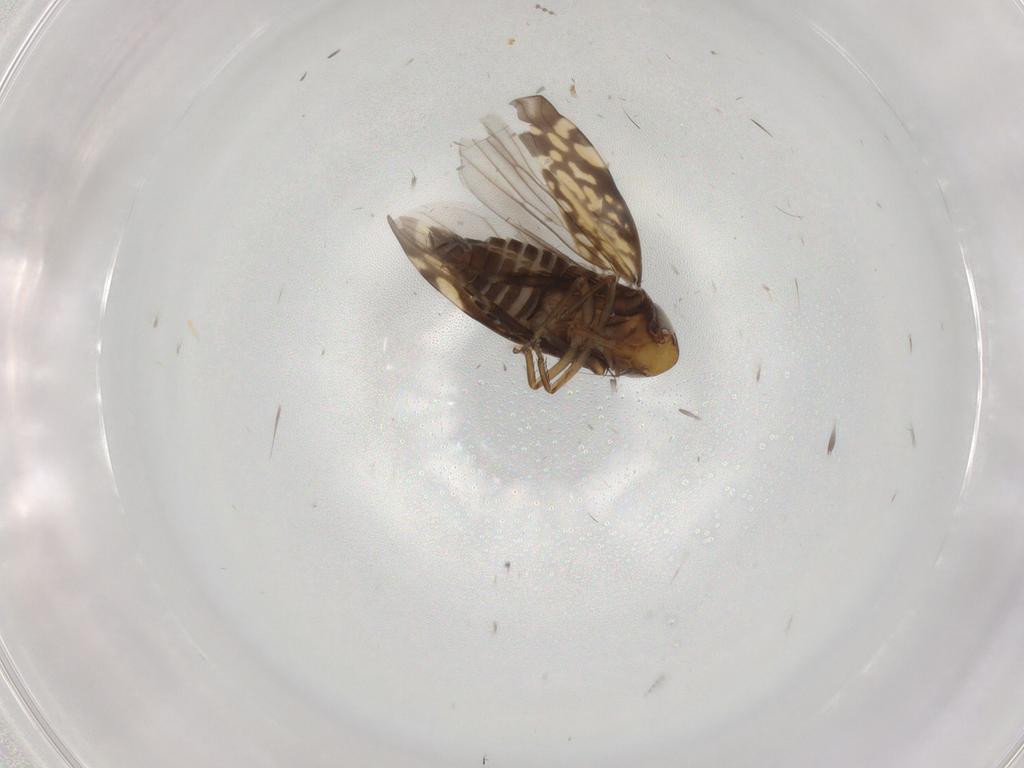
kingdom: Animalia
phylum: Arthropoda
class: Insecta
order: Hemiptera
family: Cicadellidae
